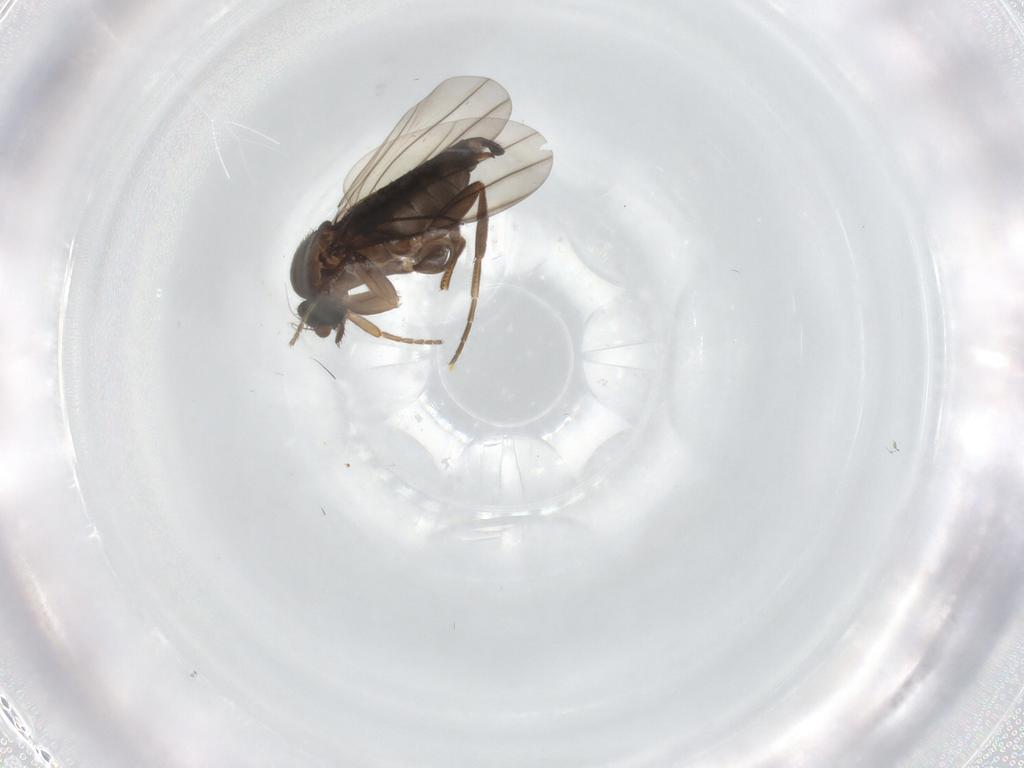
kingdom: Animalia
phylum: Arthropoda
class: Insecta
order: Diptera
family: Phoridae
